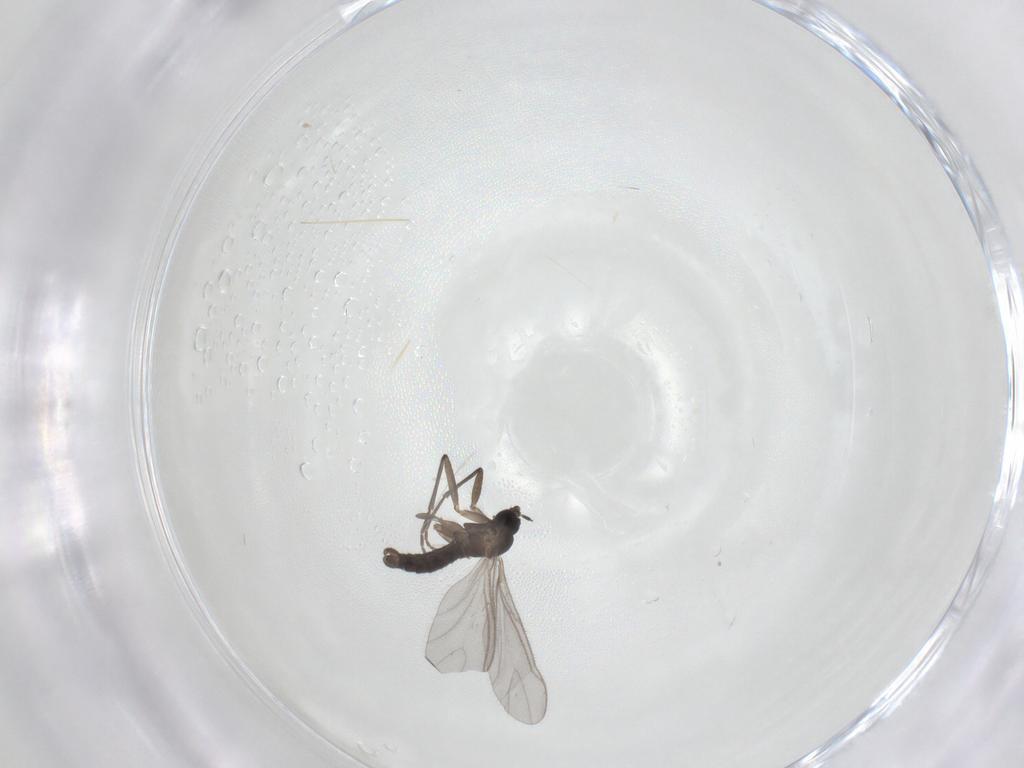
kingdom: Animalia
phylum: Arthropoda
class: Insecta
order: Diptera
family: Sciaridae
